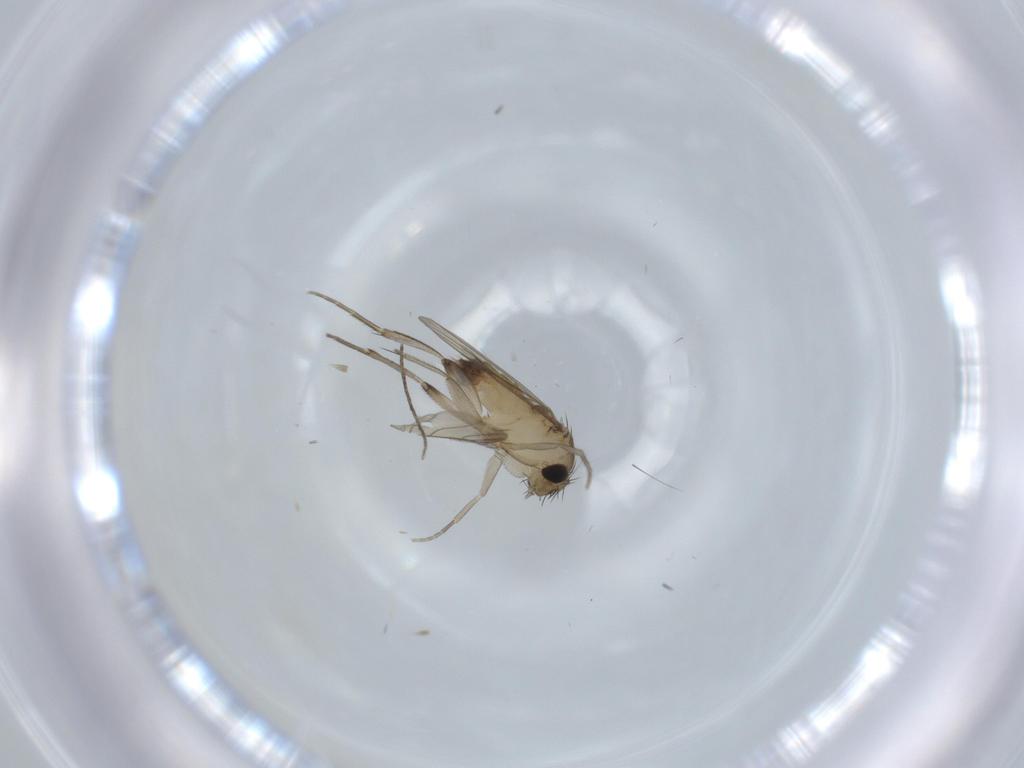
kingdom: Animalia
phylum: Arthropoda
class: Insecta
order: Diptera
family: Phoridae
